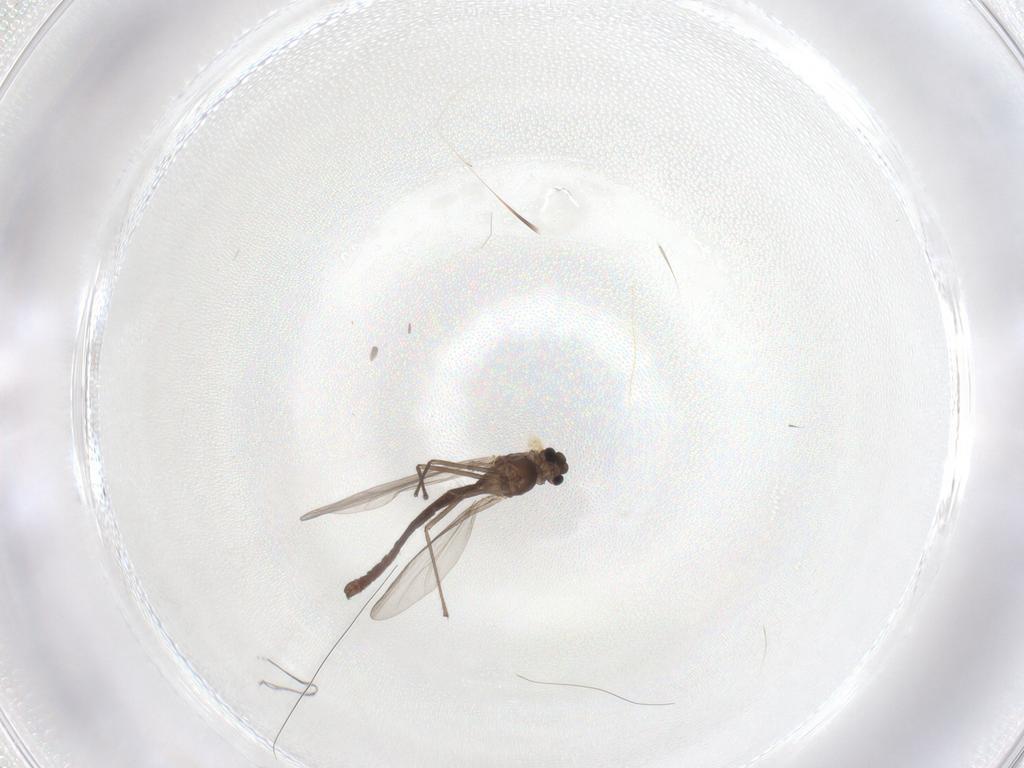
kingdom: Animalia
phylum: Arthropoda
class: Insecta
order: Diptera
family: Chironomidae
